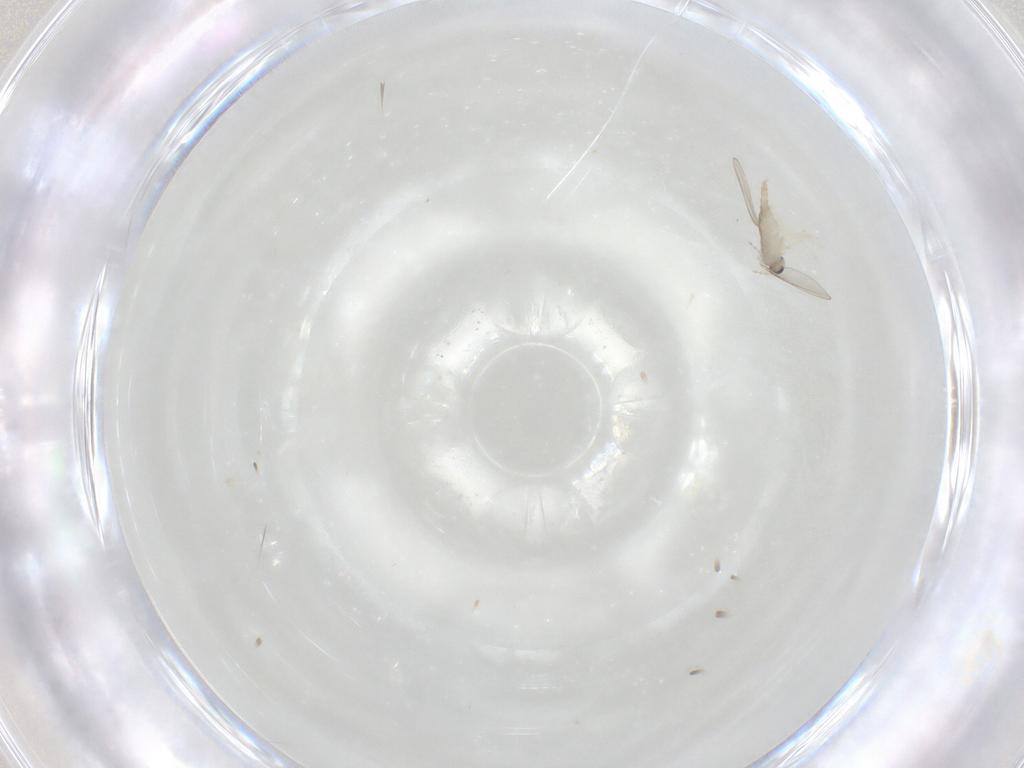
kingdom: Animalia
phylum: Arthropoda
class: Insecta
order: Diptera
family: Cecidomyiidae
